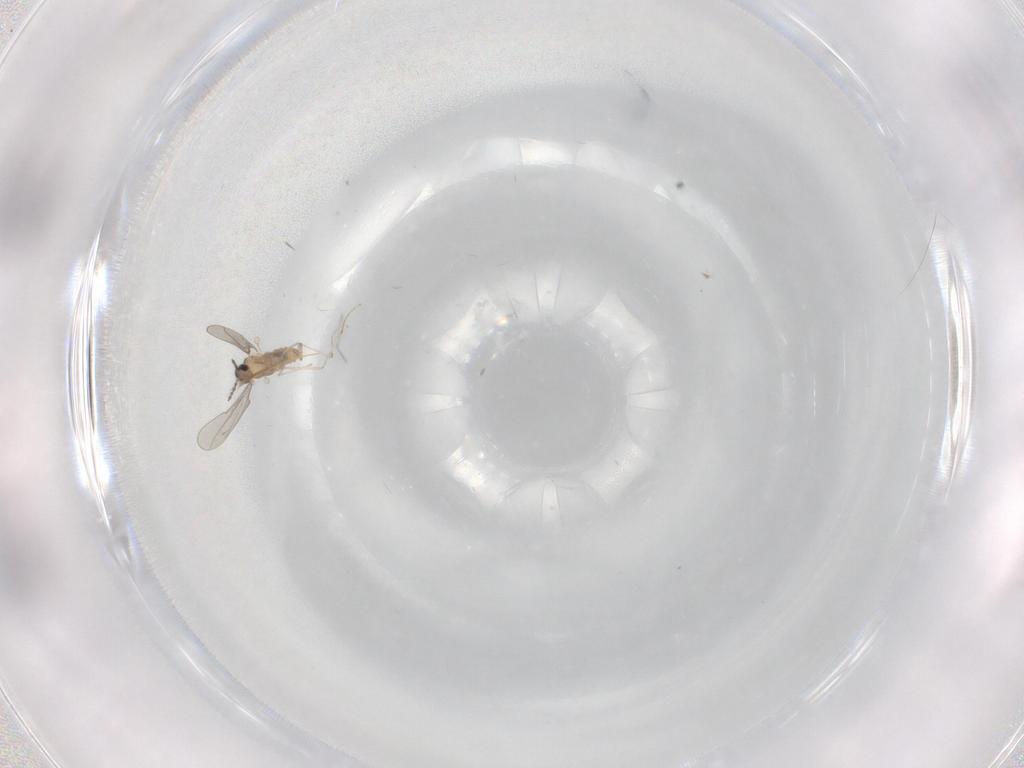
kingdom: Animalia
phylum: Arthropoda
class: Insecta
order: Diptera
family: Cecidomyiidae
